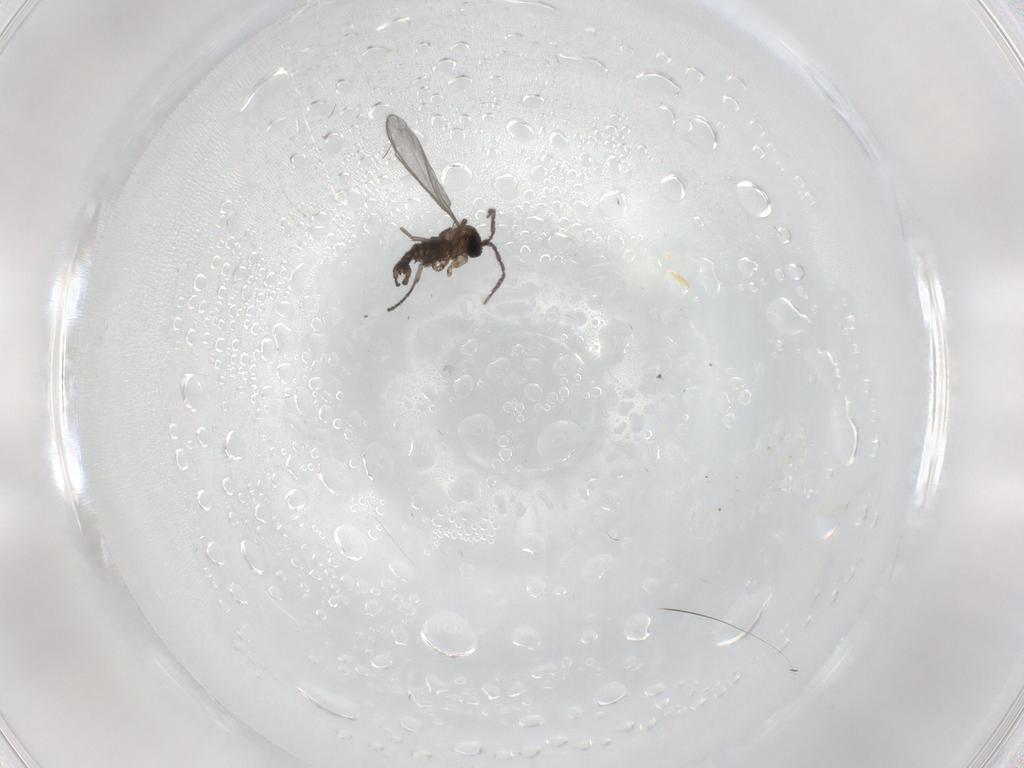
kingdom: Animalia
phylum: Arthropoda
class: Insecta
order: Diptera
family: Sciaridae
